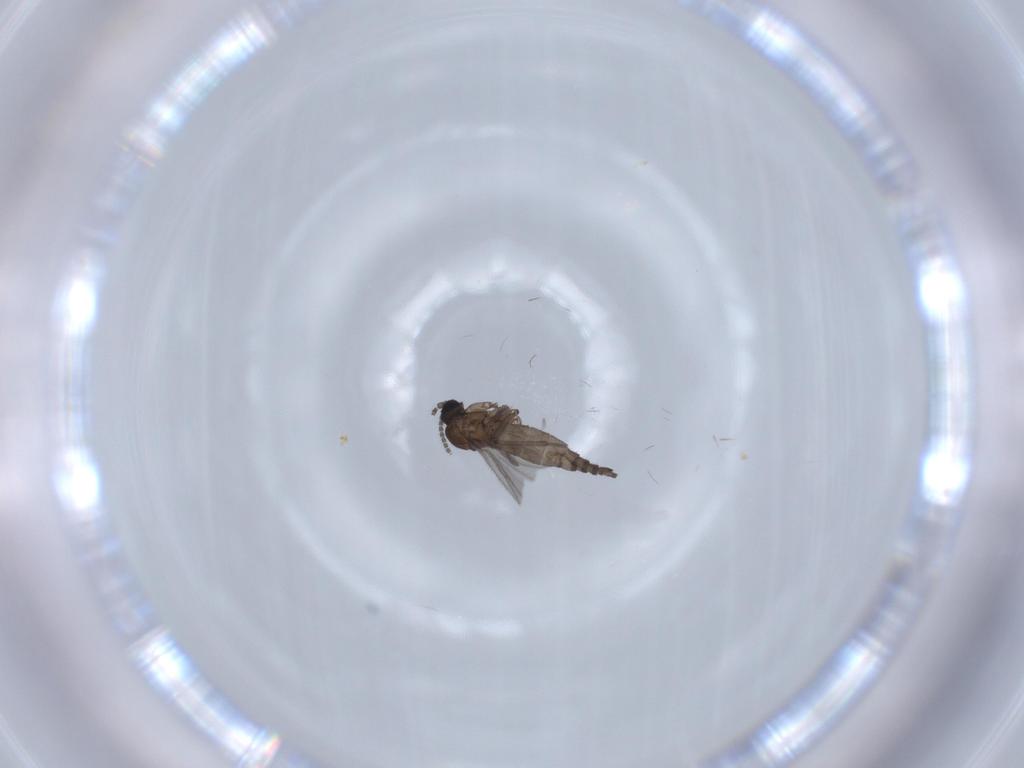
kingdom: Animalia
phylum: Arthropoda
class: Insecta
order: Diptera
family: Sciaridae
